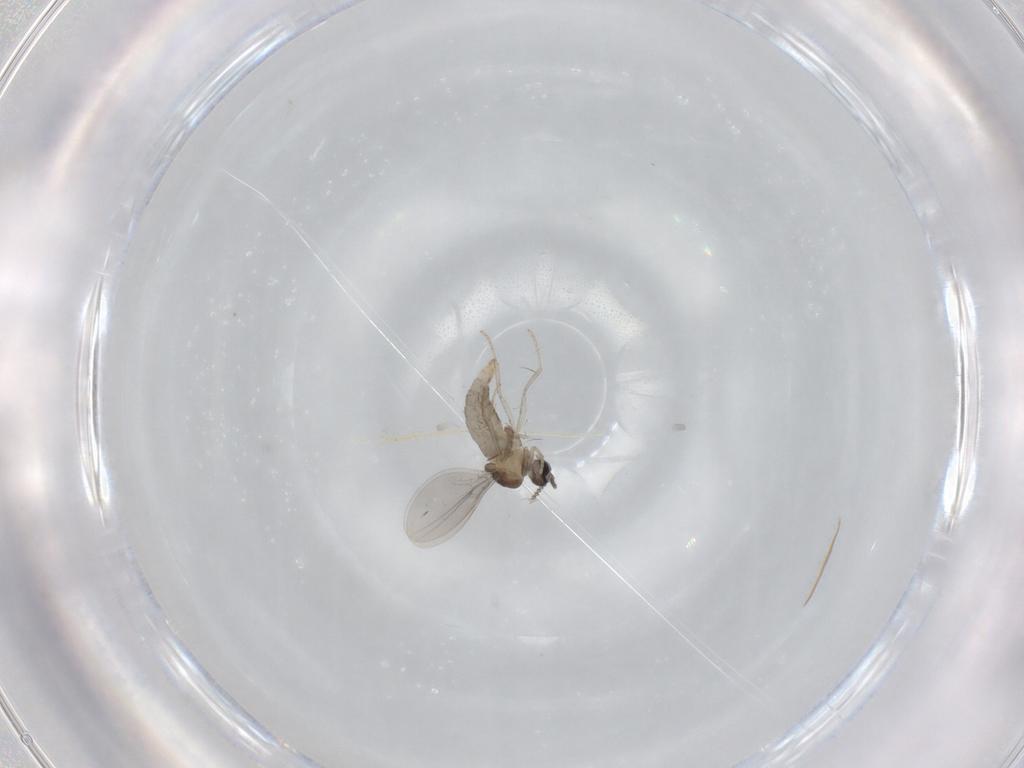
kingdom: Animalia
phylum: Arthropoda
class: Insecta
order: Diptera
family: Cecidomyiidae
